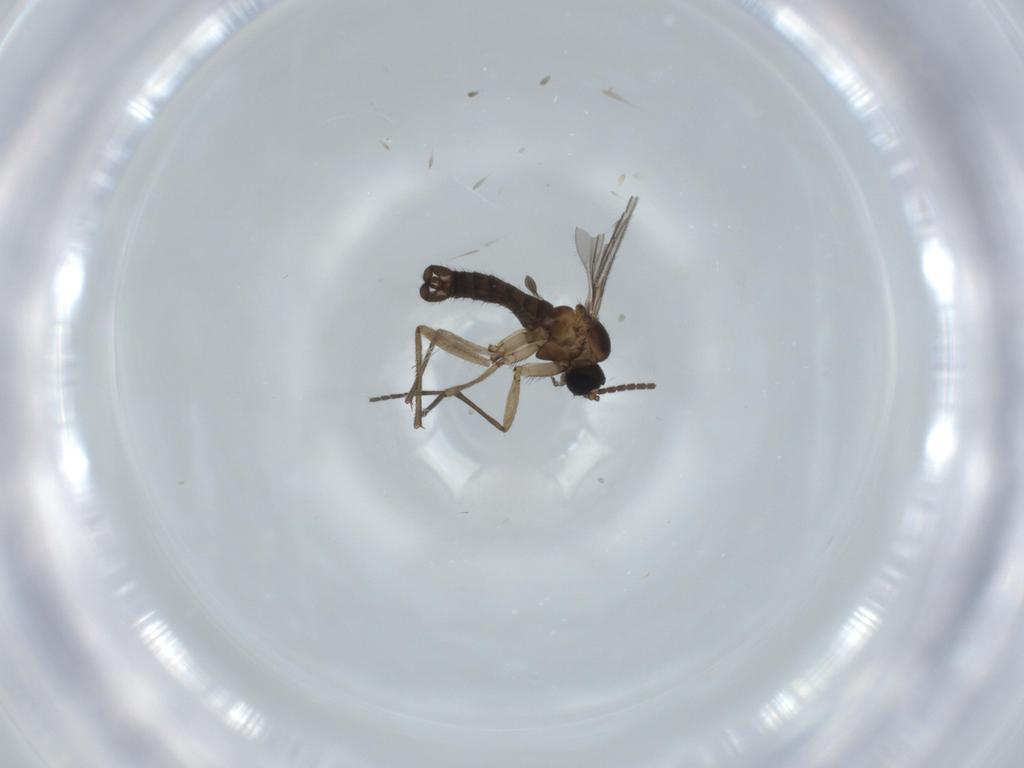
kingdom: Animalia
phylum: Arthropoda
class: Insecta
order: Diptera
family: Sciaridae
